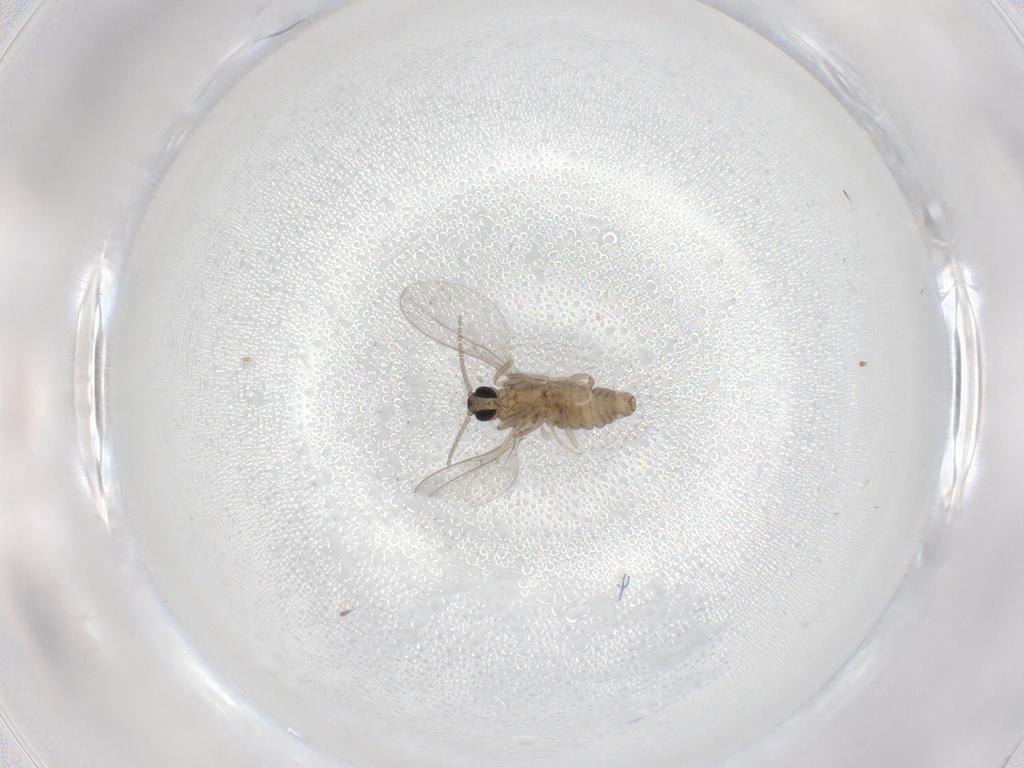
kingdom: Animalia
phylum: Arthropoda
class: Insecta
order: Diptera
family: Cecidomyiidae
